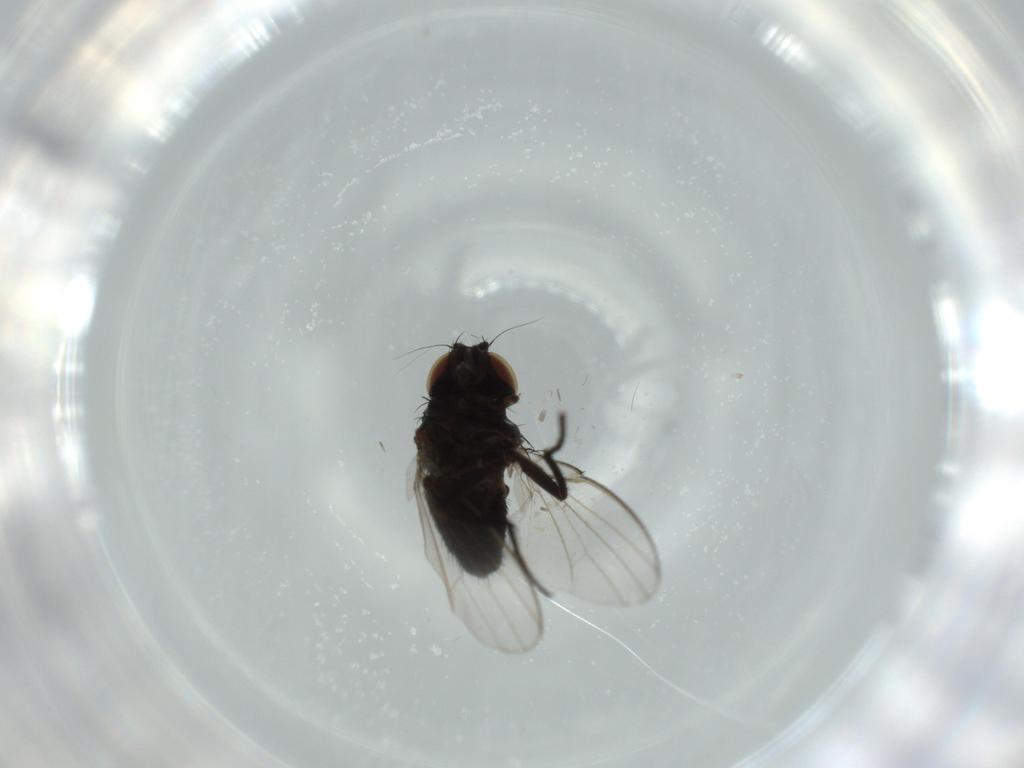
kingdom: Animalia
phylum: Arthropoda
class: Insecta
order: Diptera
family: Milichiidae
